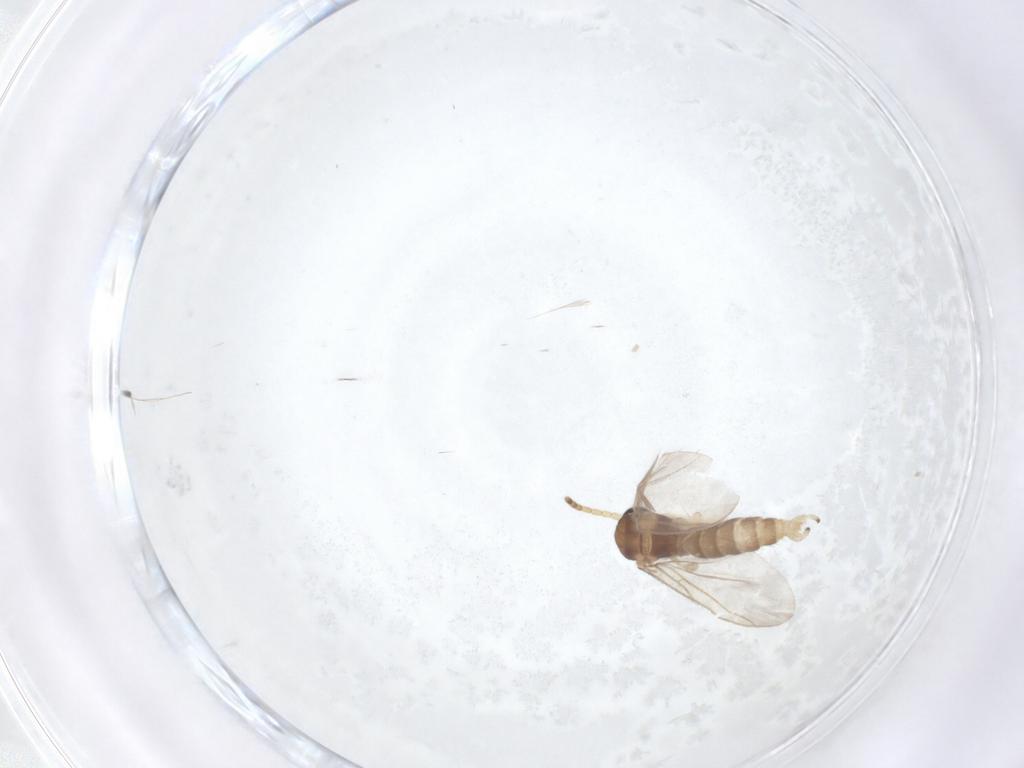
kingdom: Animalia
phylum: Arthropoda
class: Insecta
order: Diptera
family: Sciaridae
